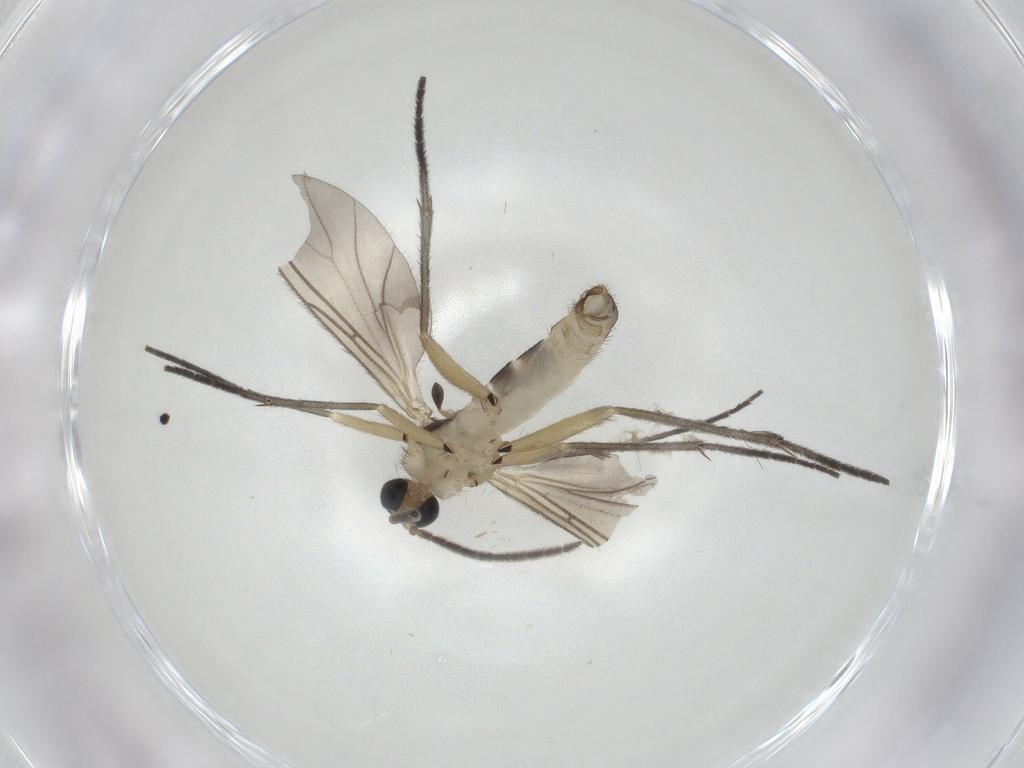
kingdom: Animalia
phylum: Arthropoda
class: Insecta
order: Diptera
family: Sciaridae
